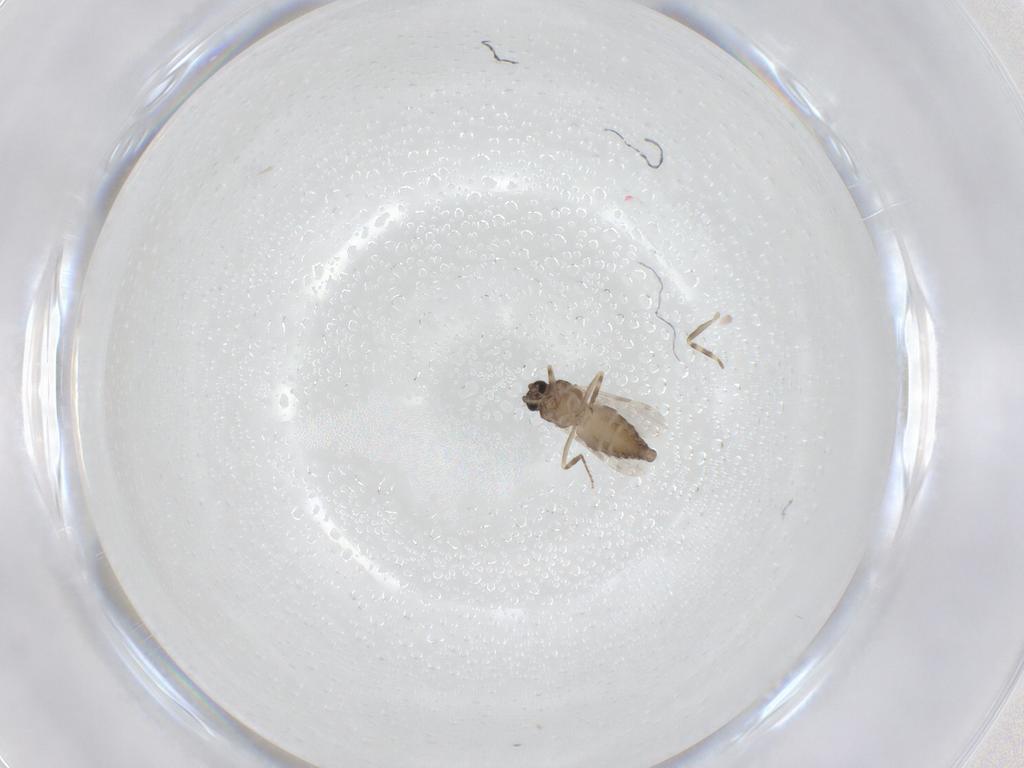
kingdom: Animalia
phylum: Arthropoda
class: Insecta
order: Diptera
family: Ceratopogonidae
